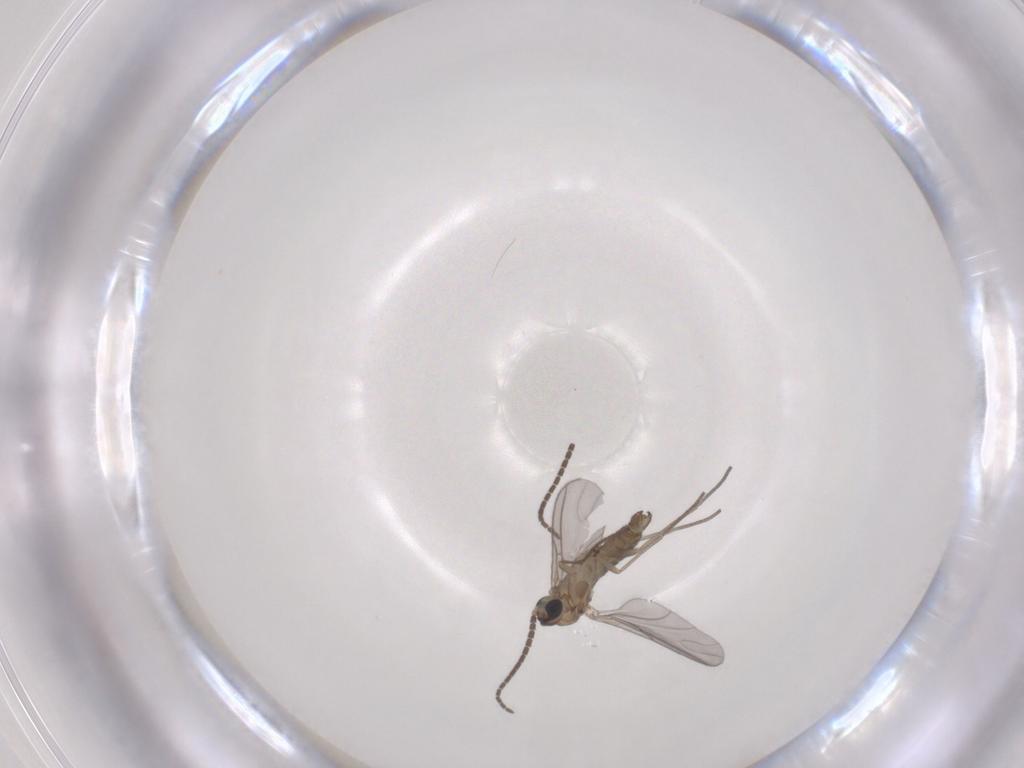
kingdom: Animalia
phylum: Arthropoda
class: Insecta
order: Diptera
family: Sciaridae
